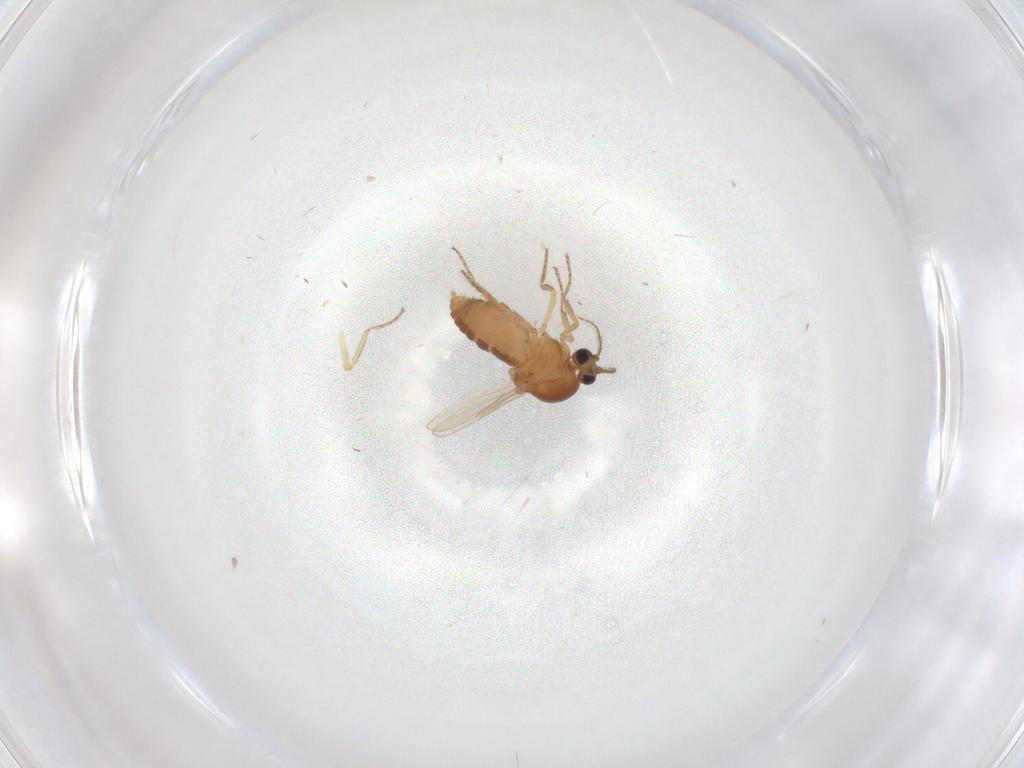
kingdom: Animalia
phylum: Arthropoda
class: Insecta
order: Diptera
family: Ceratopogonidae
